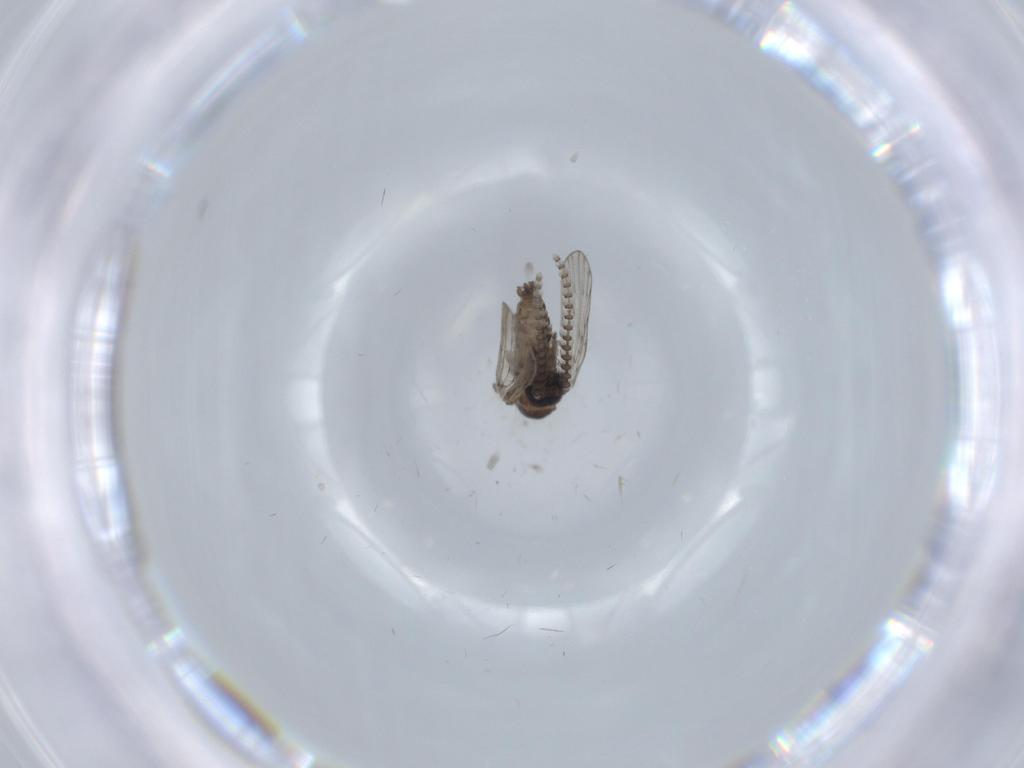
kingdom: Animalia
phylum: Arthropoda
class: Insecta
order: Diptera
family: Psychodidae
